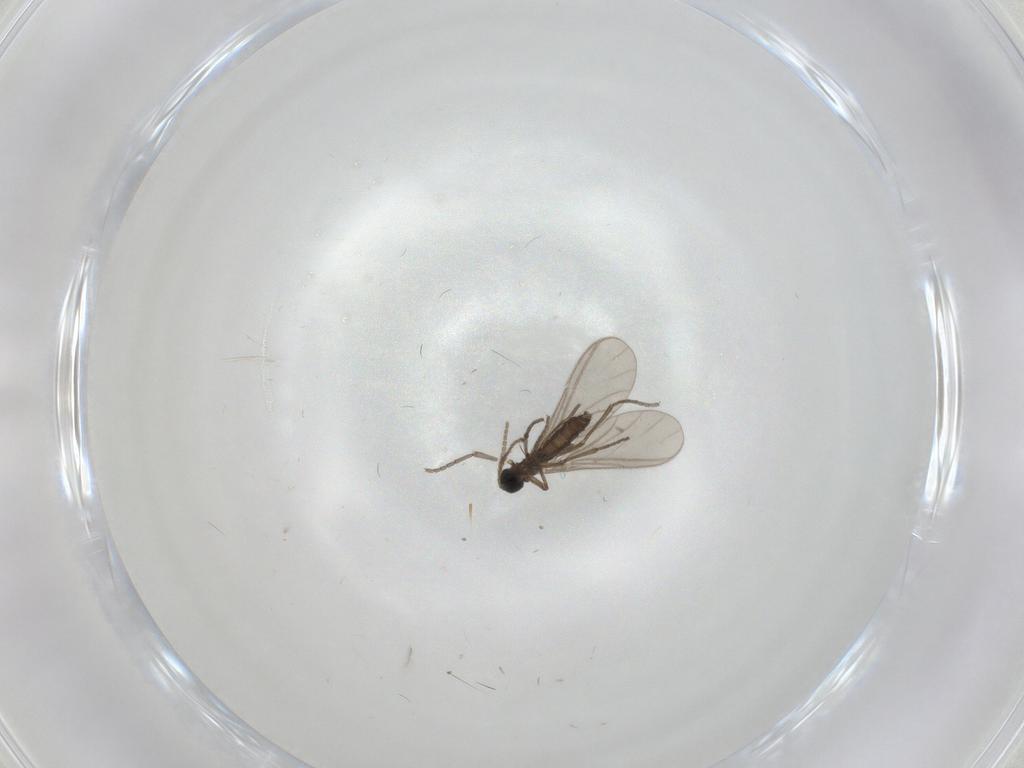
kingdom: Animalia
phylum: Arthropoda
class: Insecta
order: Diptera
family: Sciaridae
